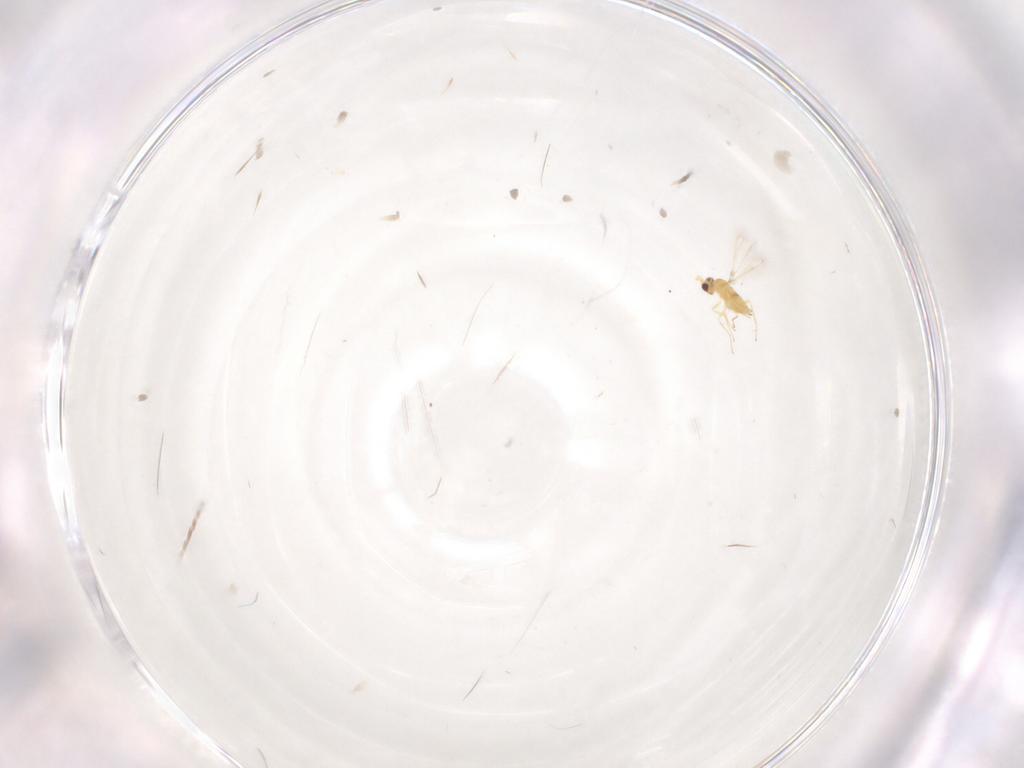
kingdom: Animalia
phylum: Arthropoda
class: Insecta
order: Hymenoptera
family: Mymaridae
